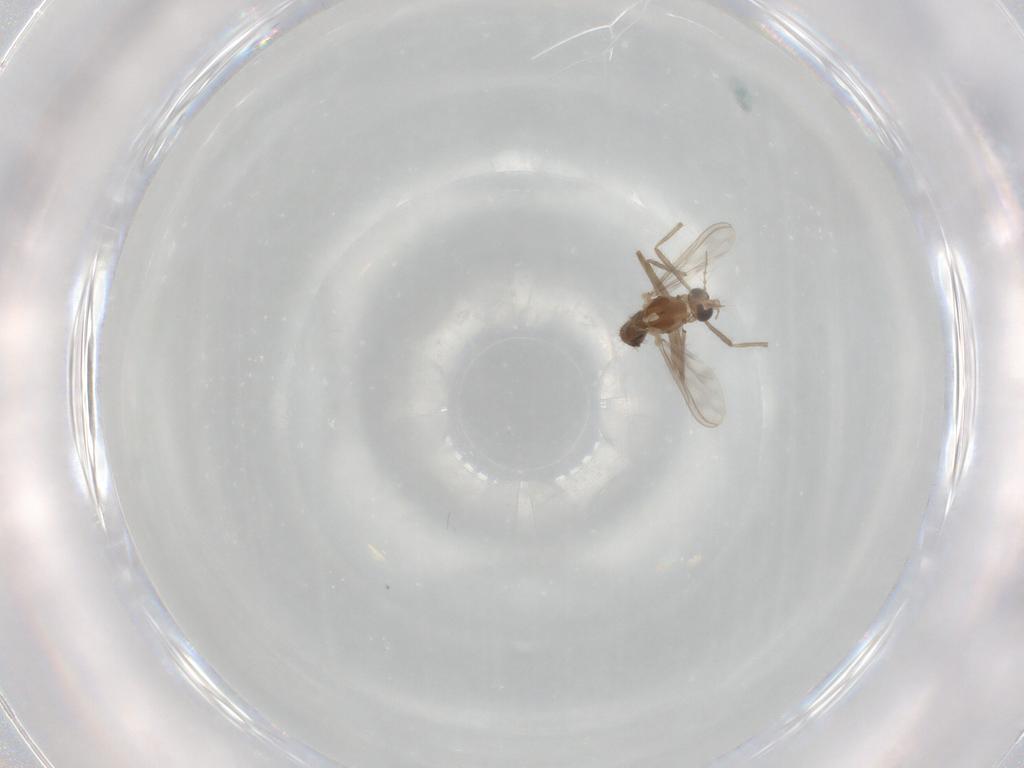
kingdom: Animalia
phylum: Arthropoda
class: Insecta
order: Diptera
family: Chironomidae
